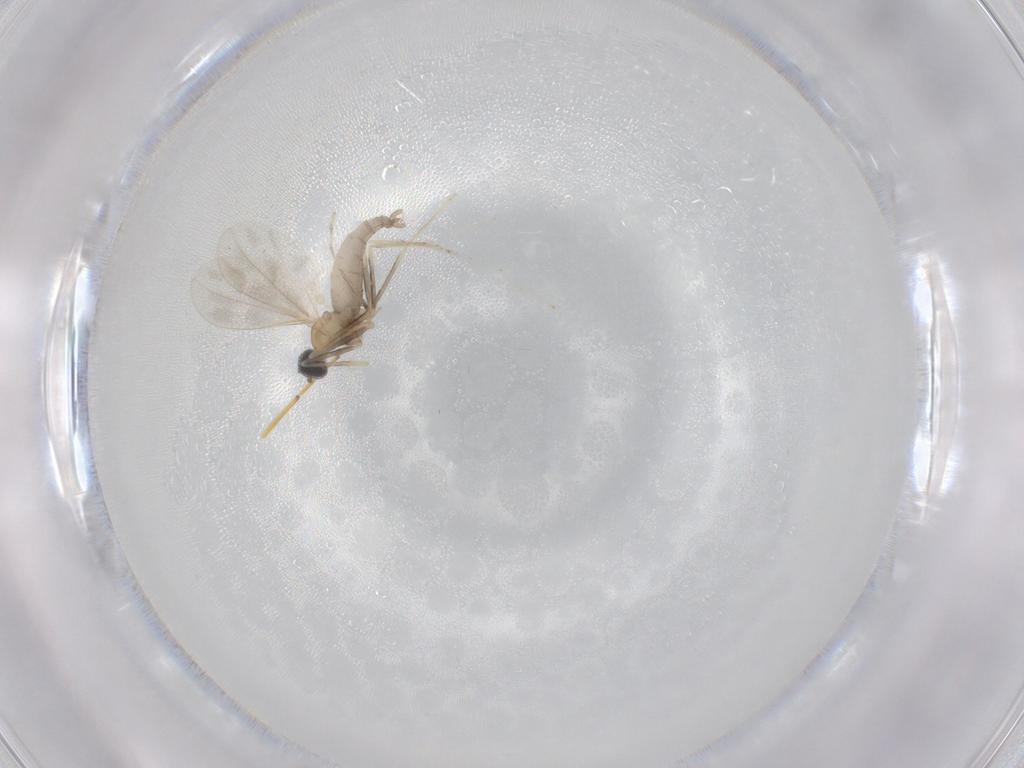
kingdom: Animalia
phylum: Arthropoda
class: Insecta
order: Diptera
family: Cecidomyiidae
